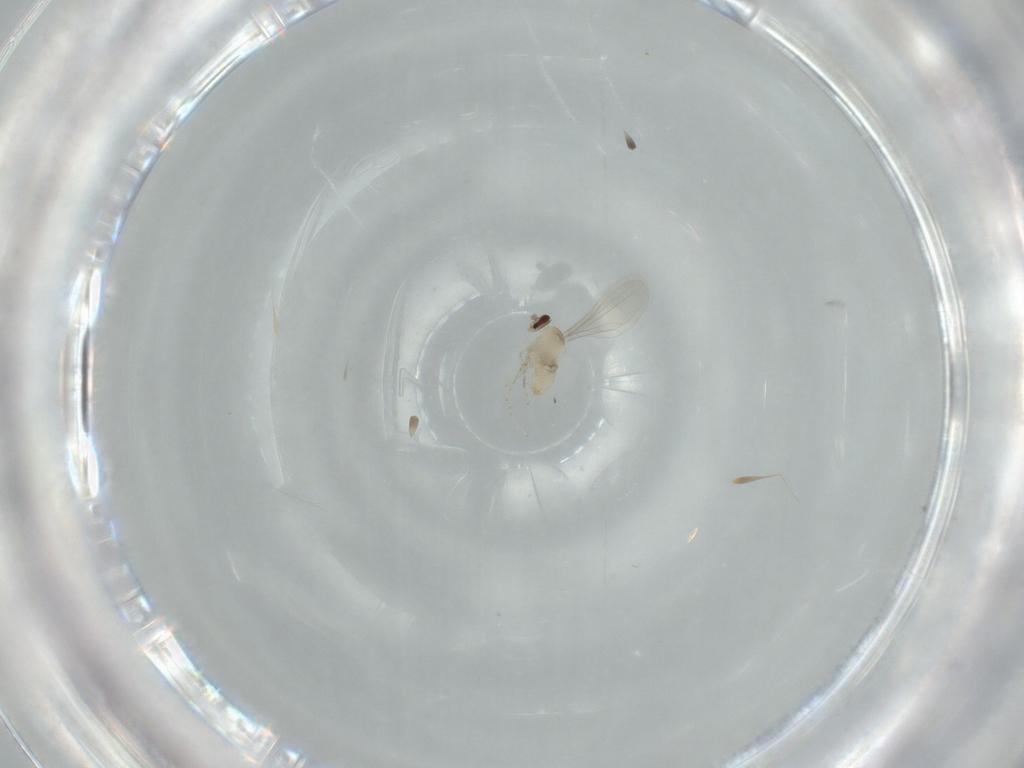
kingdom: Animalia
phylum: Arthropoda
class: Insecta
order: Diptera
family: Cecidomyiidae
